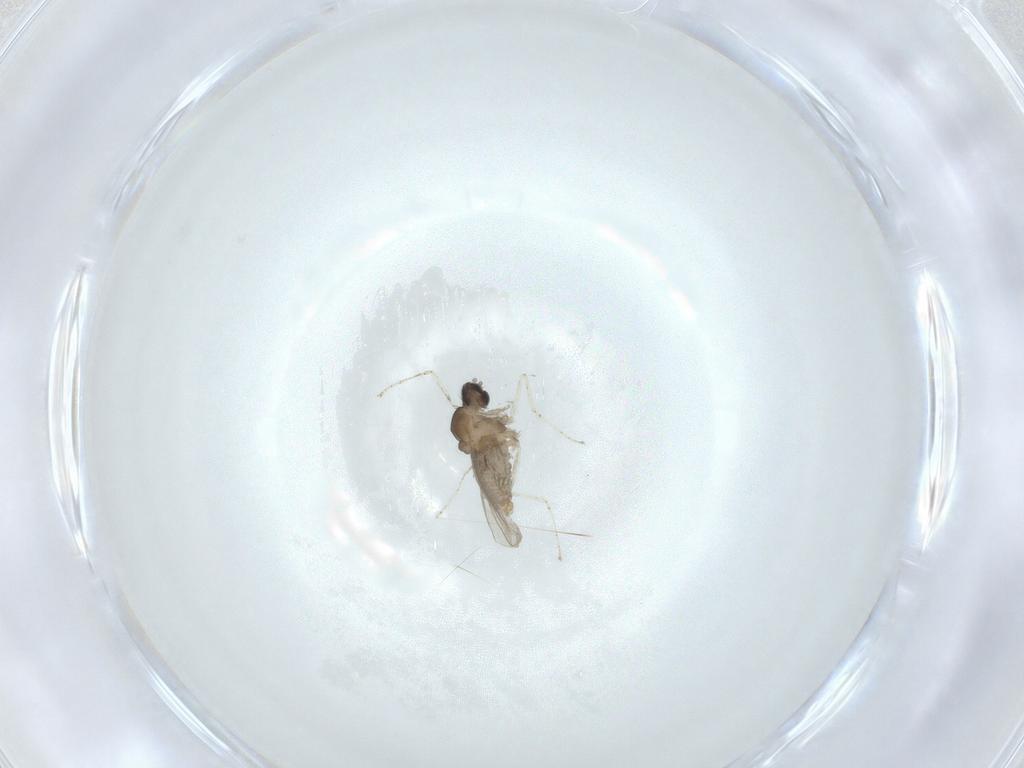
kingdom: Animalia
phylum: Arthropoda
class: Insecta
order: Diptera
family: Cecidomyiidae
